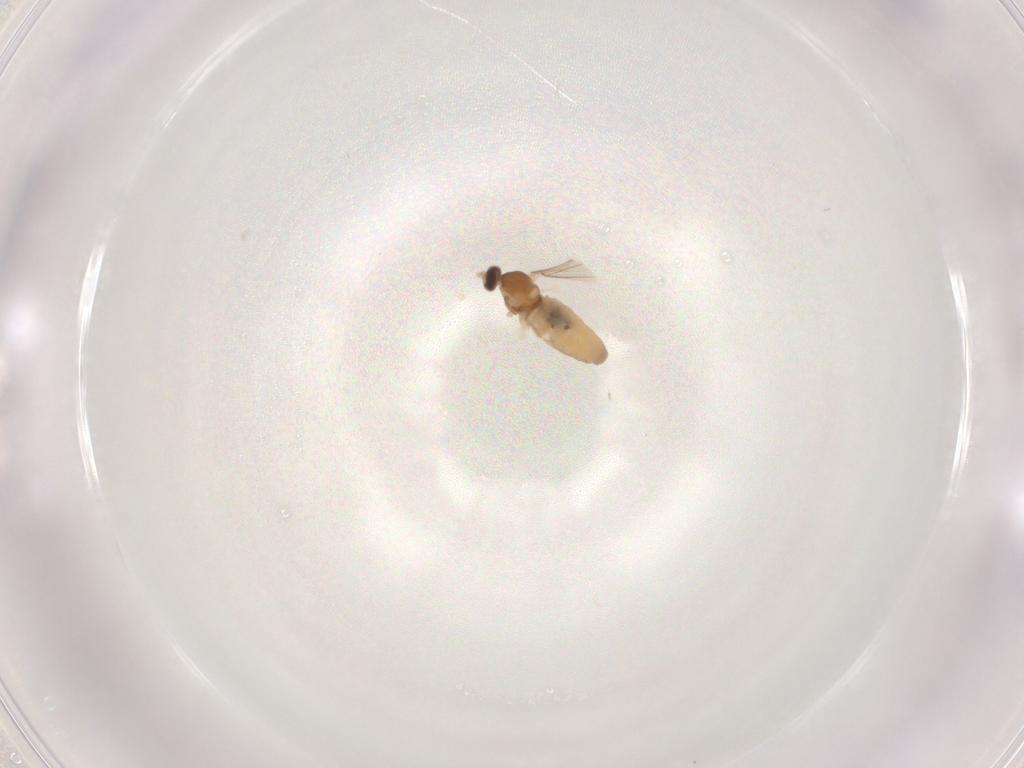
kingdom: Animalia
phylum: Arthropoda
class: Insecta
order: Diptera
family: Cecidomyiidae
